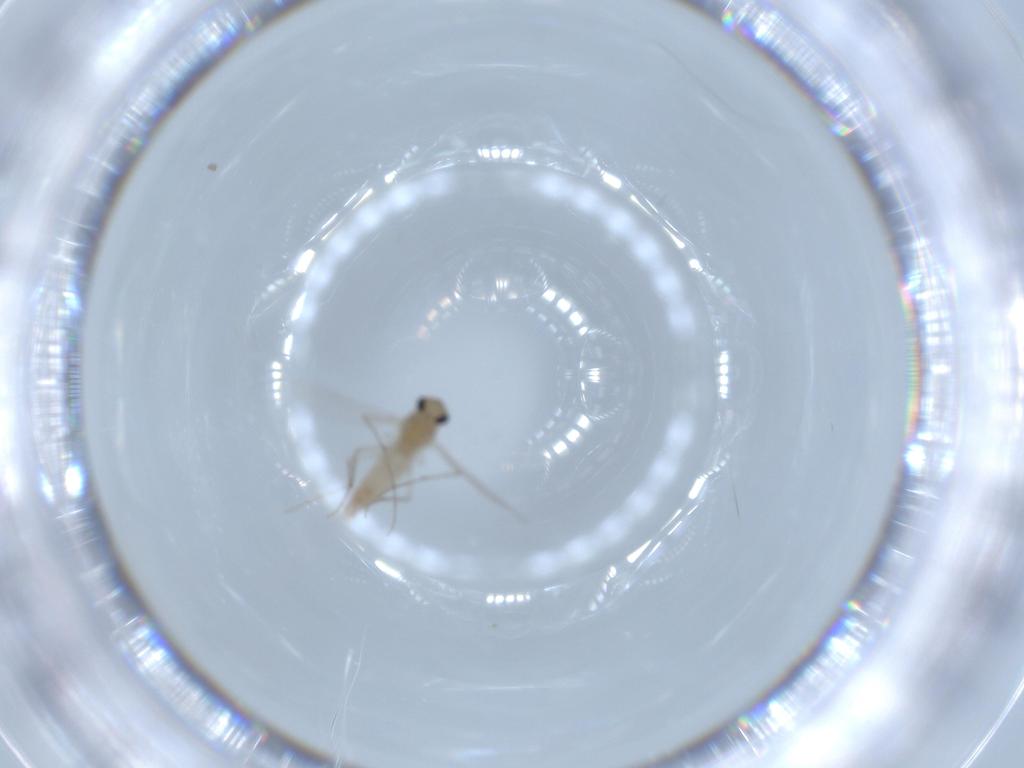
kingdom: Animalia
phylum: Arthropoda
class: Insecta
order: Diptera
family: Chironomidae
